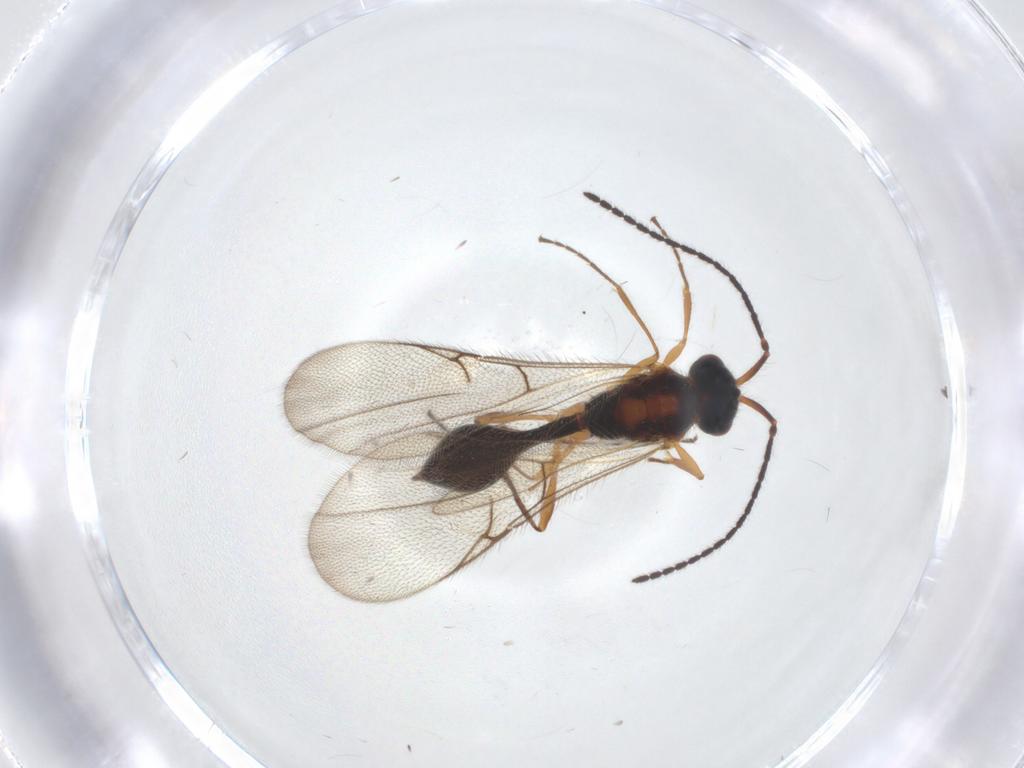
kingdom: Animalia
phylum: Arthropoda
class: Insecta
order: Hymenoptera
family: Diapriidae
